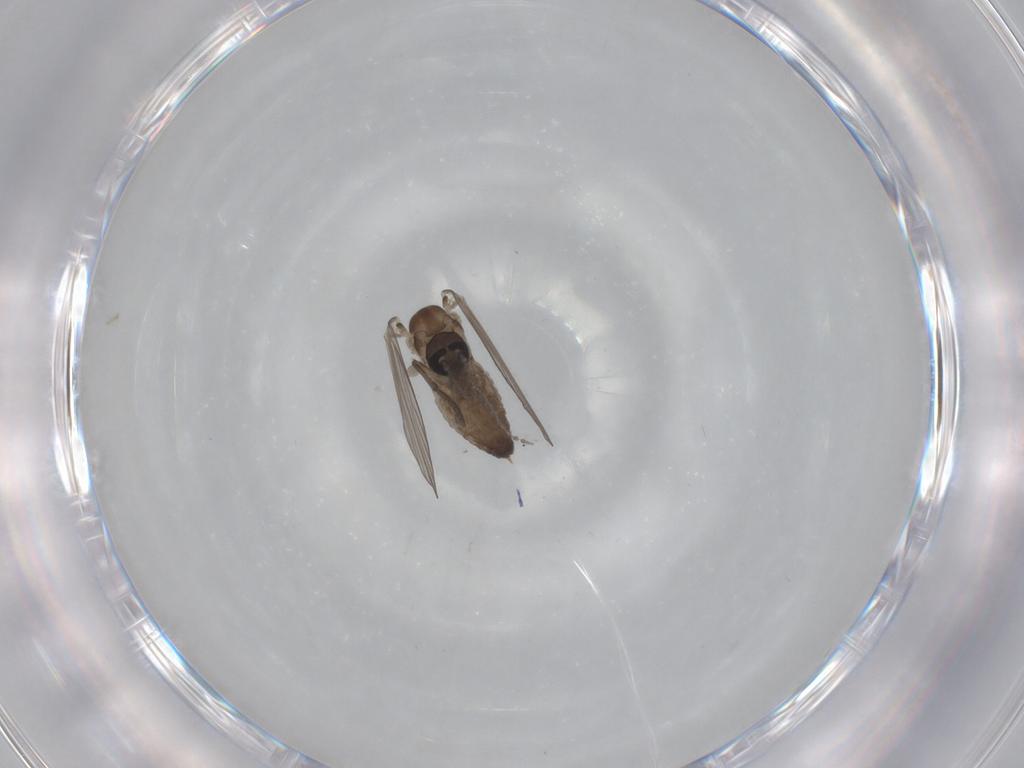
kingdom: Animalia
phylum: Arthropoda
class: Insecta
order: Diptera
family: Psychodidae
